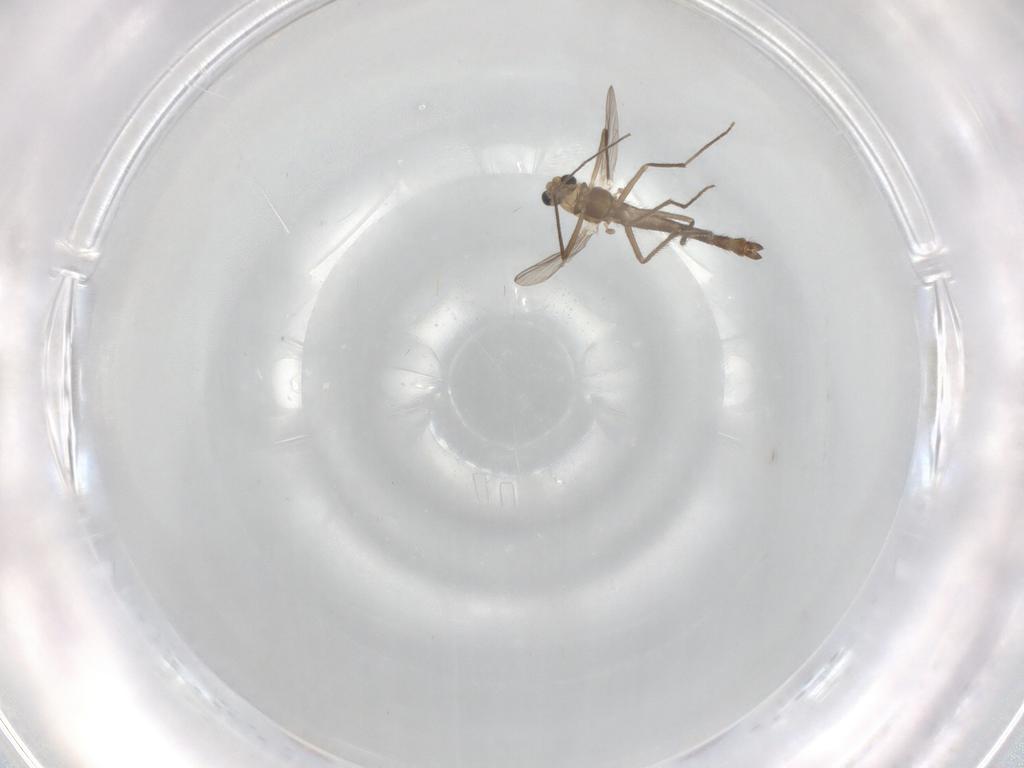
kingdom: Animalia
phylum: Arthropoda
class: Insecta
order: Diptera
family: Chironomidae
